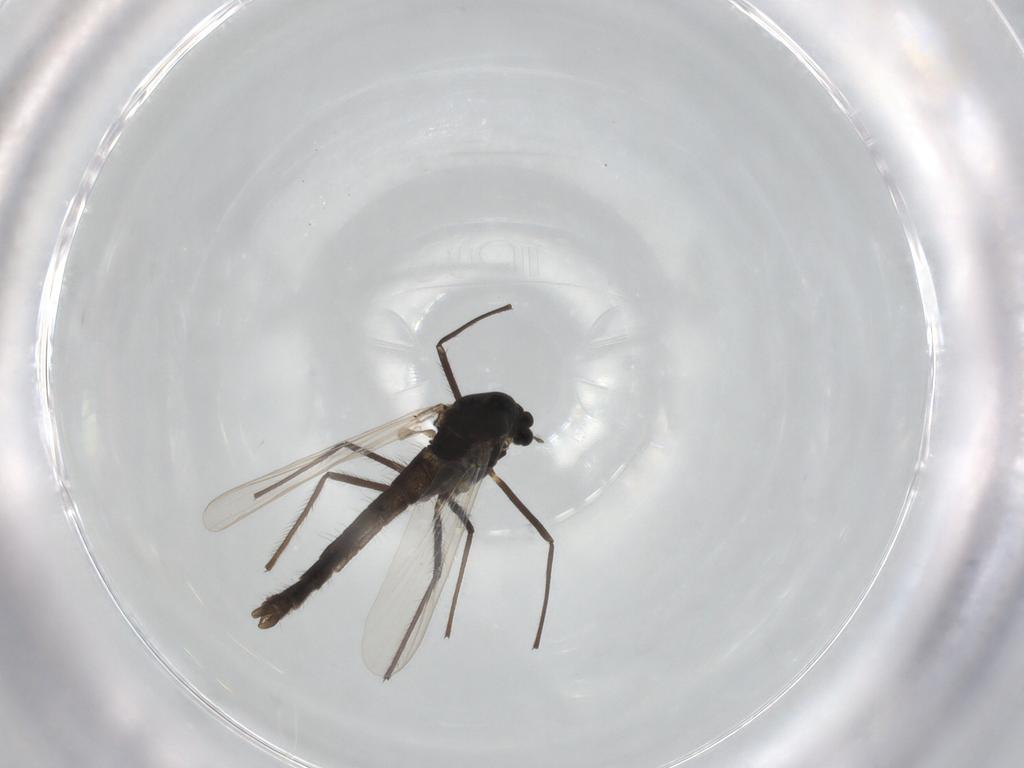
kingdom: Animalia
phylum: Arthropoda
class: Insecta
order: Diptera
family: Chironomidae
